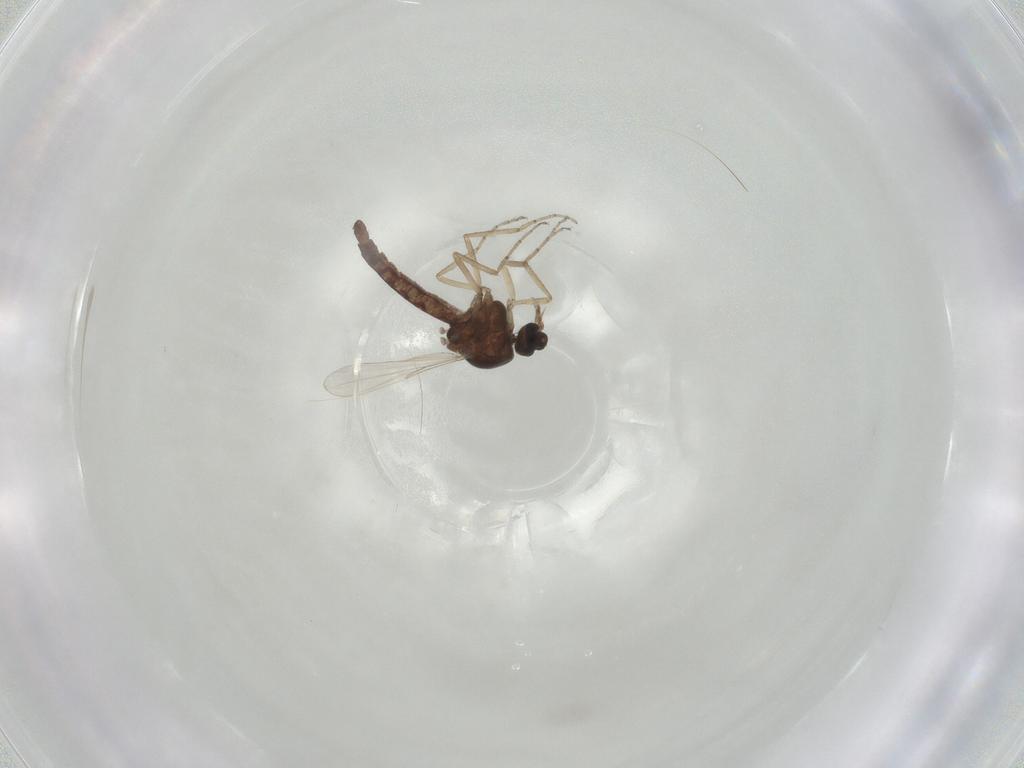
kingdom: Animalia
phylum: Arthropoda
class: Insecta
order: Diptera
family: Ceratopogonidae
